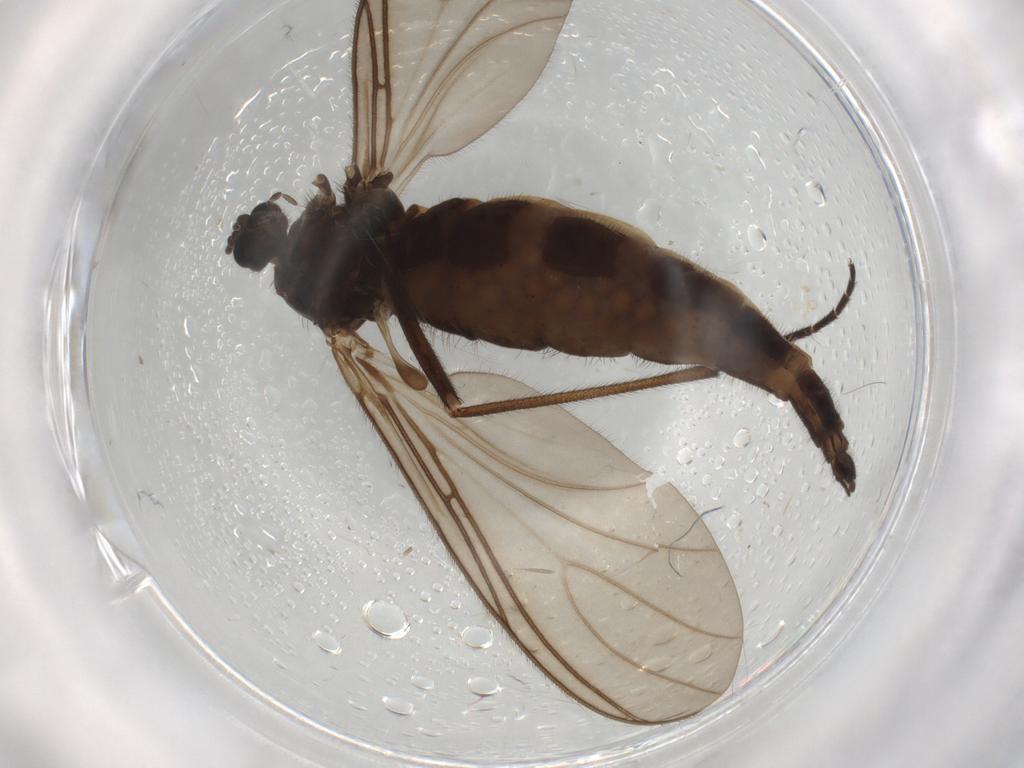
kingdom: Animalia
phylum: Arthropoda
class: Insecta
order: Diptera
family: Sciaridae
